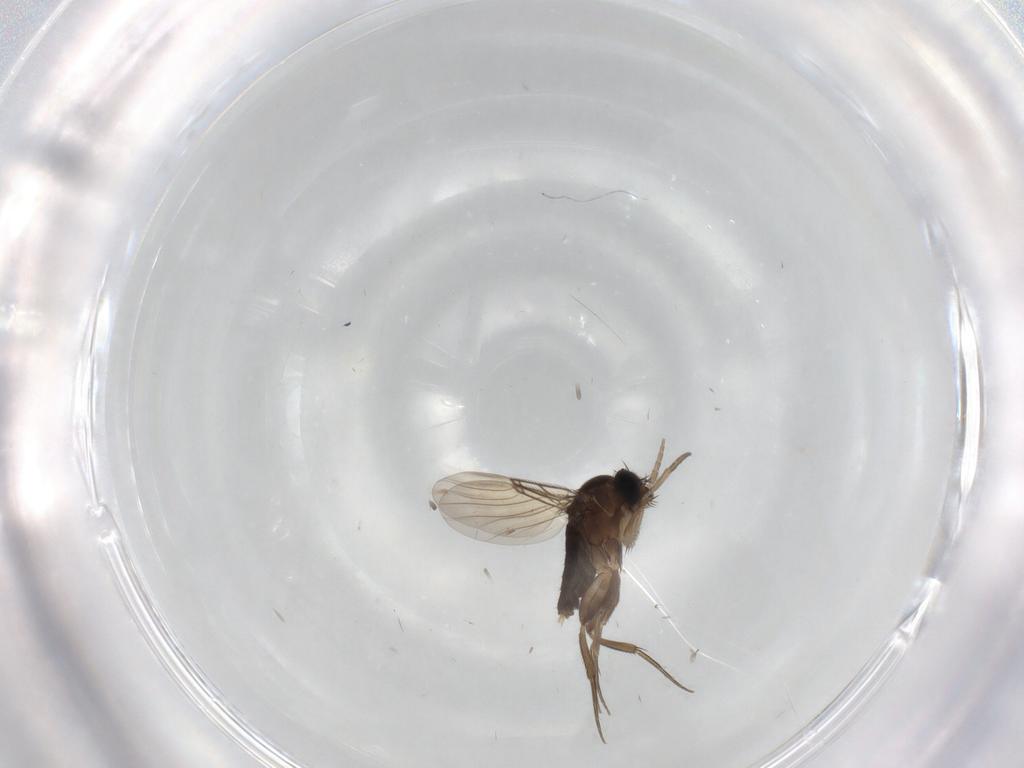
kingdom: Animalia
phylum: Arthropoda
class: Insecta
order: Diptera
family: Phoridae
